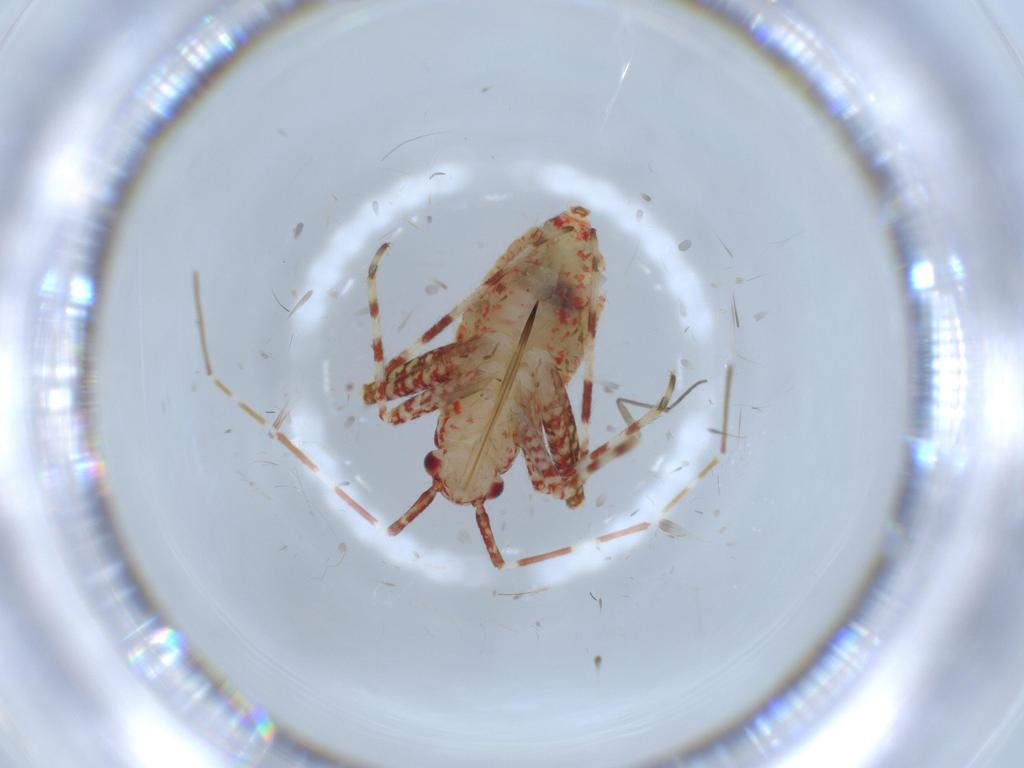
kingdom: Animalia
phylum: Arthropoda
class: Insecta
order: Hemiptera
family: Miridae
